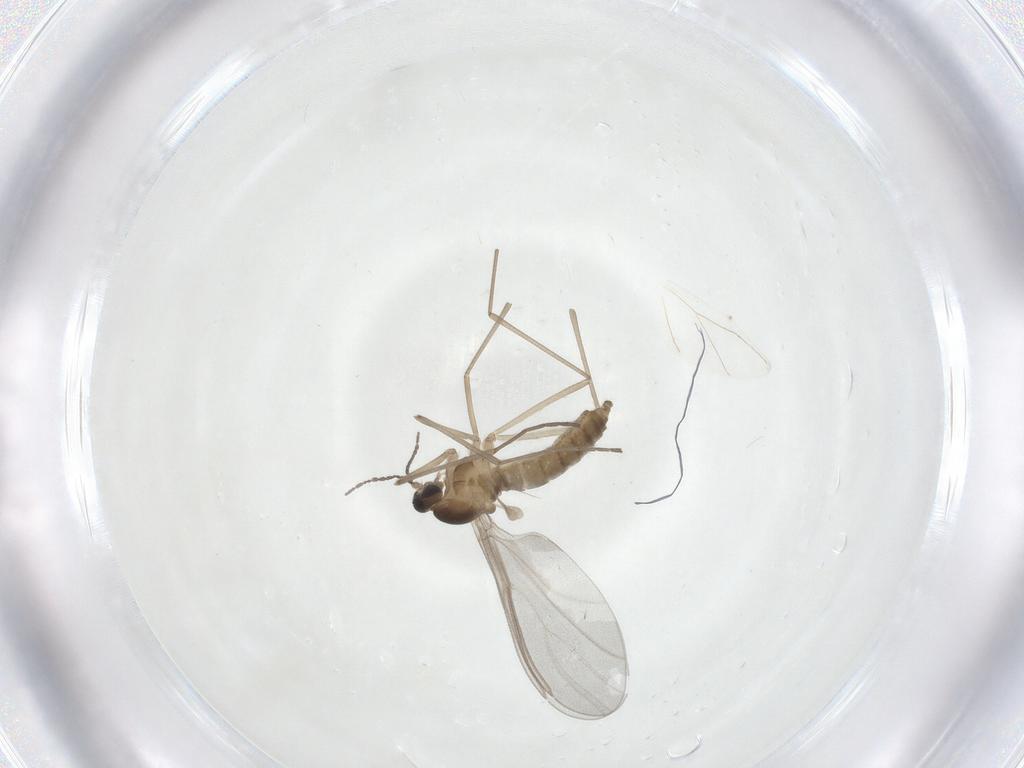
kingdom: Animalia
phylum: Arthropoda
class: Insecta
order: Diptera
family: Cecidomyiidae
